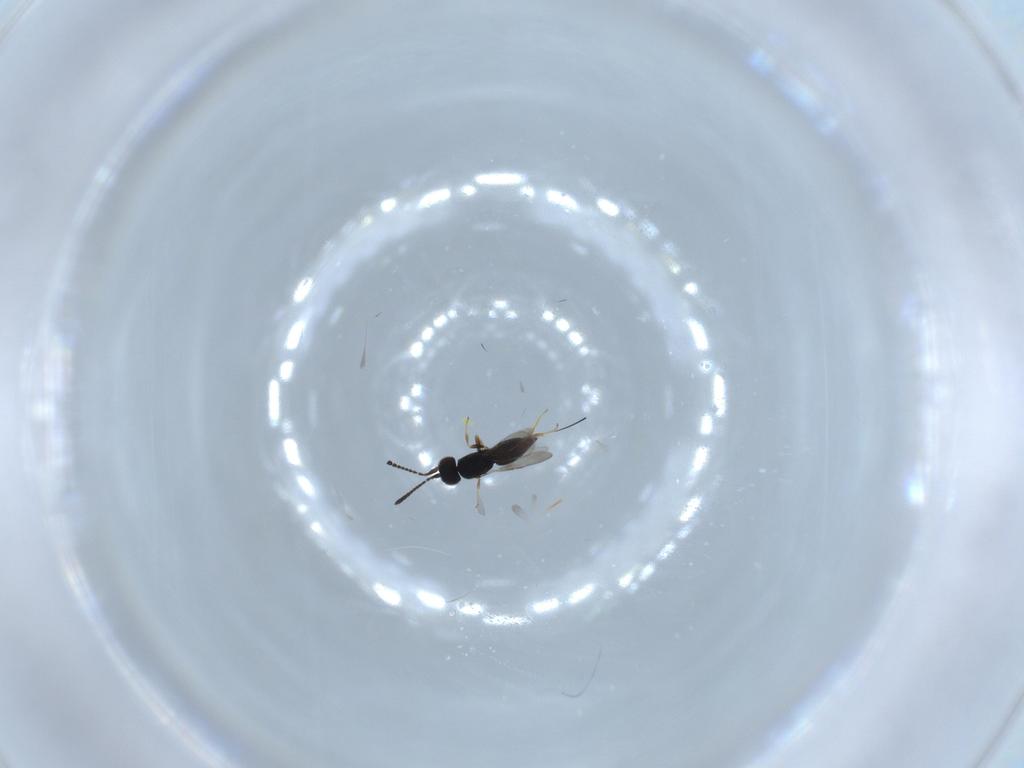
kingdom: Animalia
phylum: Arthropoda
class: Insecta
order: Hymenoptera
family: Ceraphronidae
